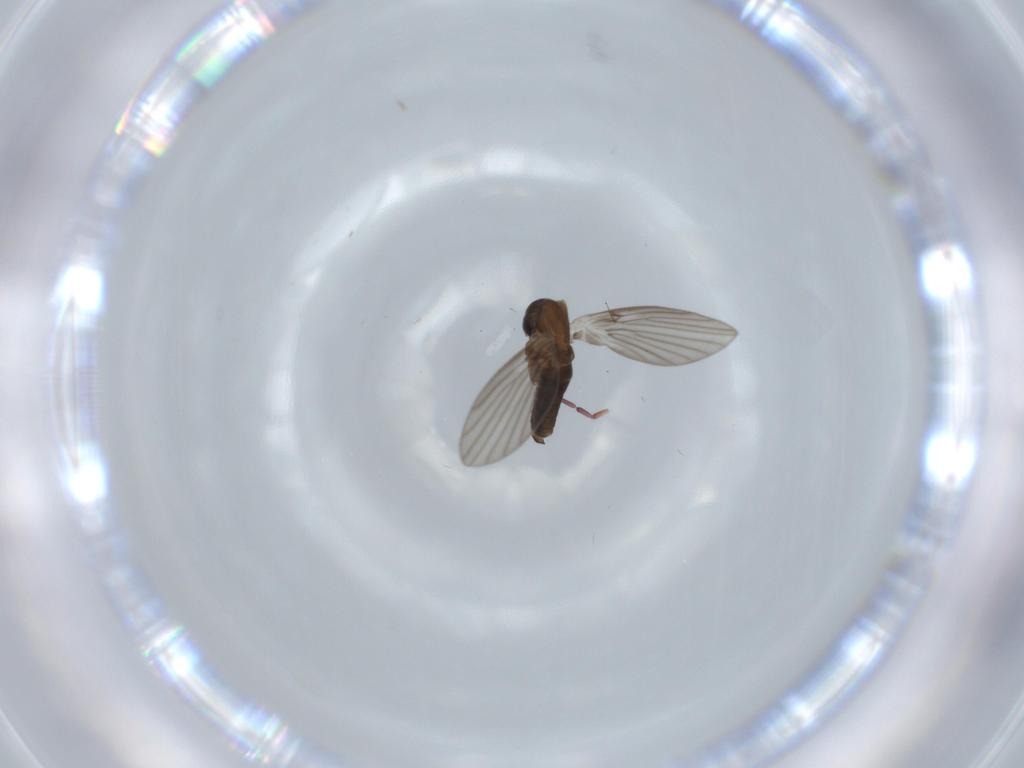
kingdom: Animalia
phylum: Arthropoda
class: Insecta
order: Diptera
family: Psychodidae
